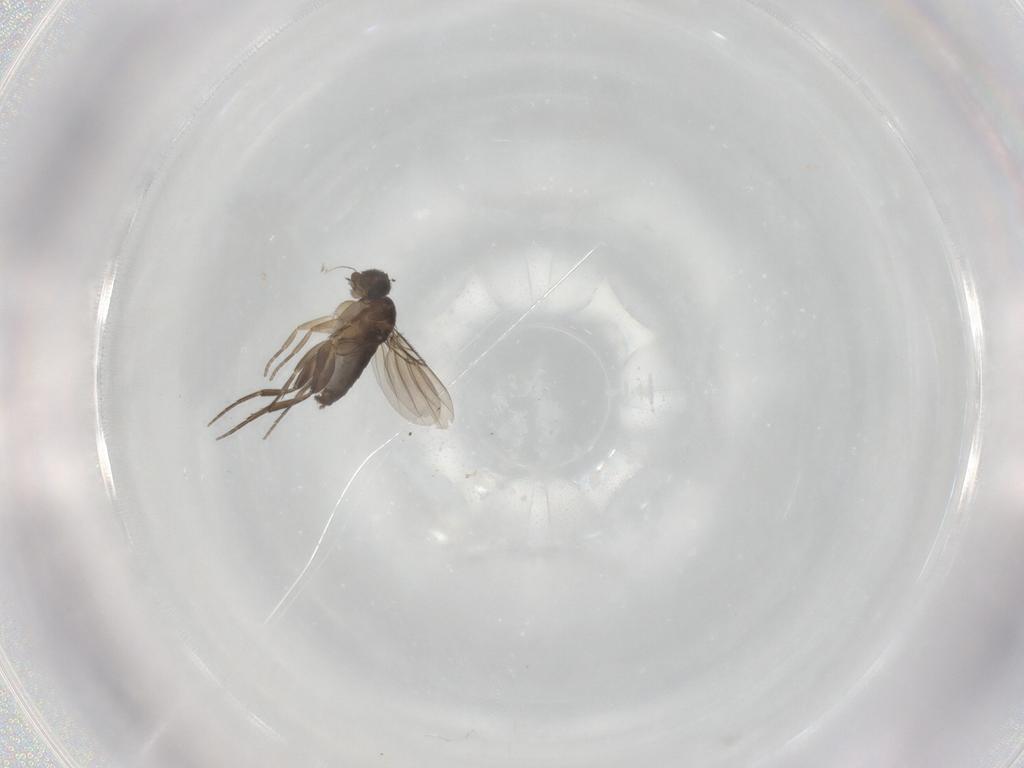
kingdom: Animalia
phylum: Arthropoda
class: Insecta
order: Diptera
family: Phoridae
